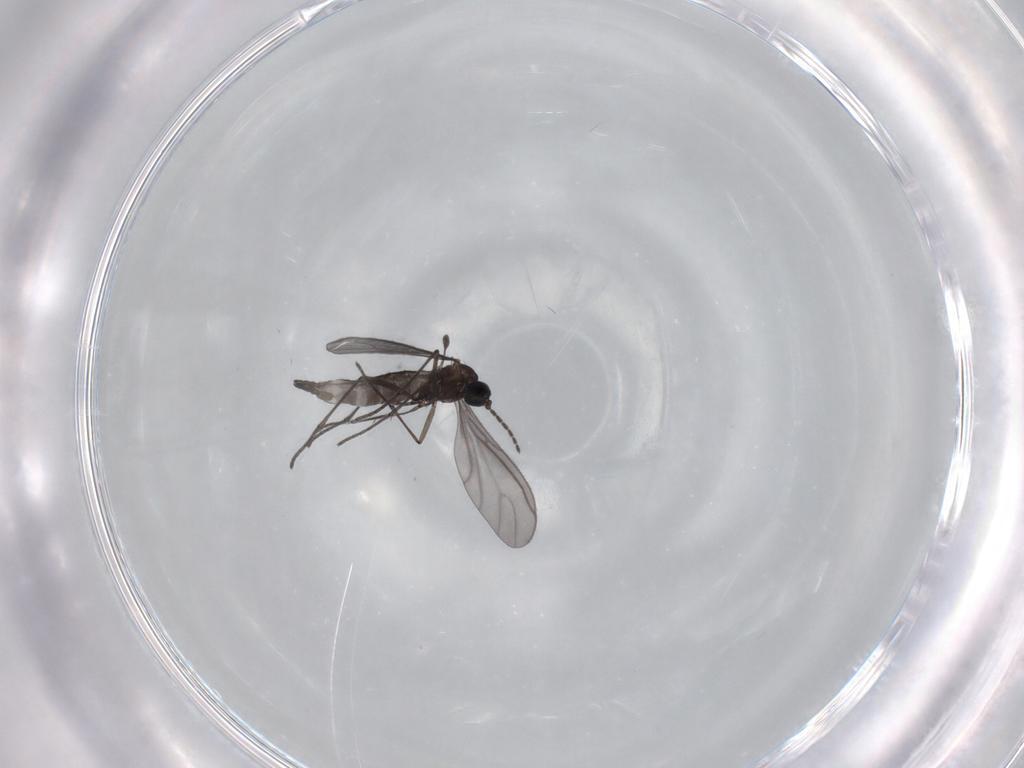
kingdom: Animalia
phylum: Arthropoda
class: Insecta
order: Diptera
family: Sciaridae
